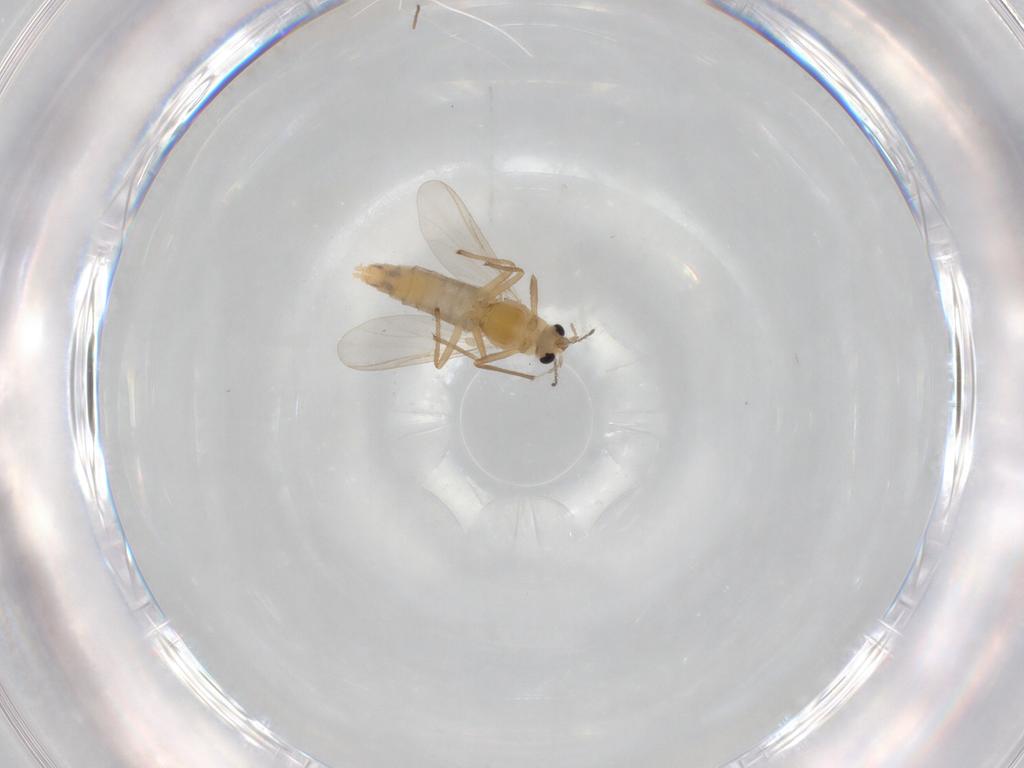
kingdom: Animalia
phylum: Arthropoda
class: Insecta
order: Diptera
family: Chironomidae
